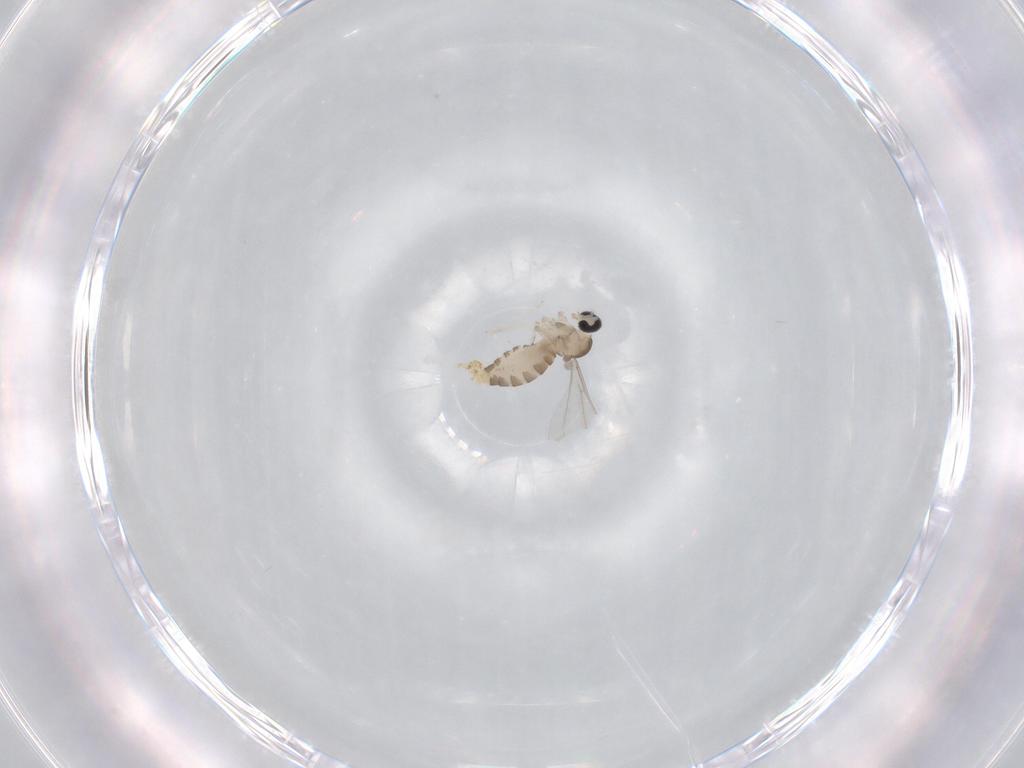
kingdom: Animalia
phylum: Arthropoda
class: Insecta
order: Diptera
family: Cecidomyiidae
